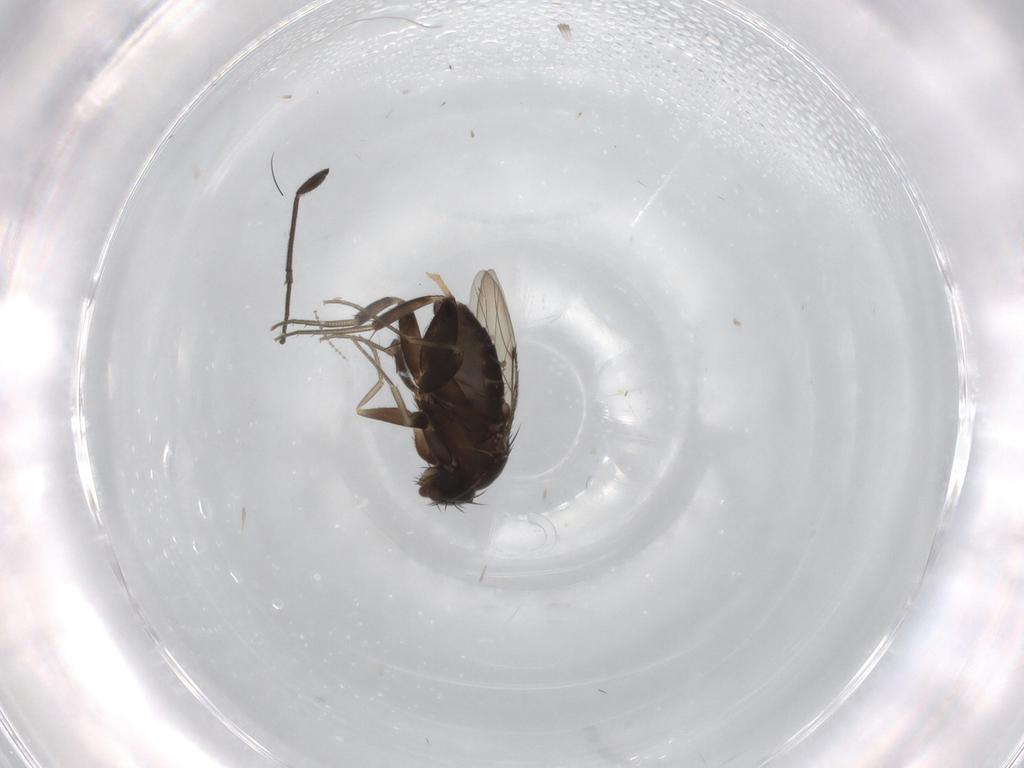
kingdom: Animalia
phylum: Arthropoda
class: Insecta
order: Diptera
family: Phoridae
